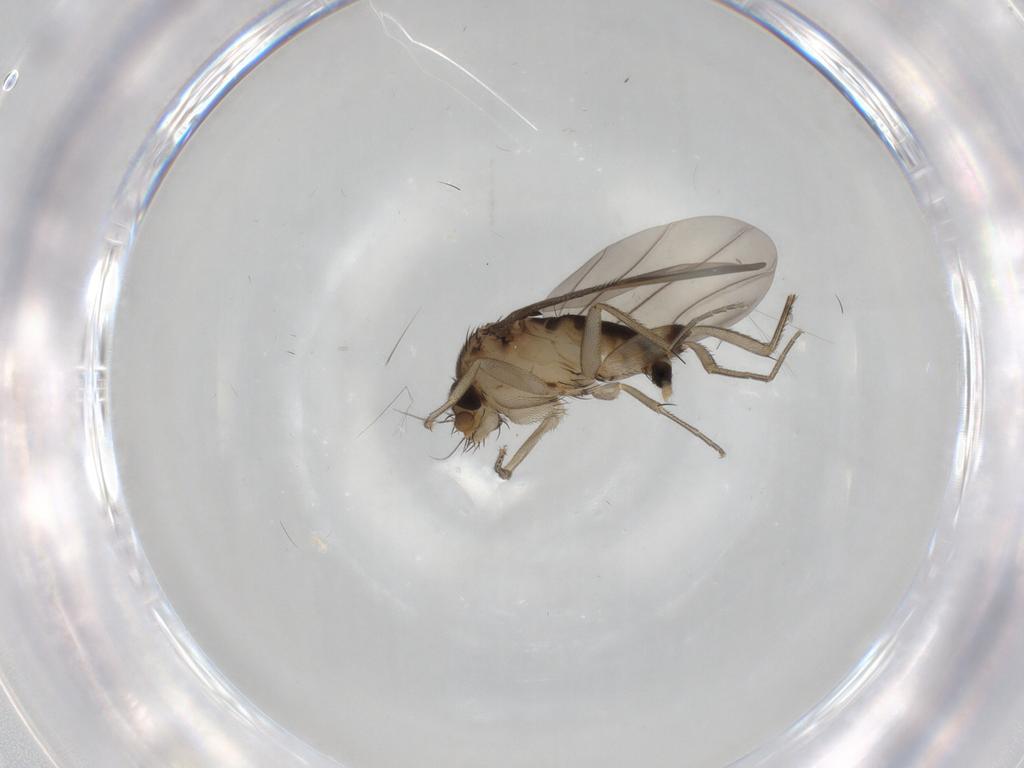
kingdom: Animalia
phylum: Arthropoda
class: Insecta
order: Diptera
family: Phoridae
